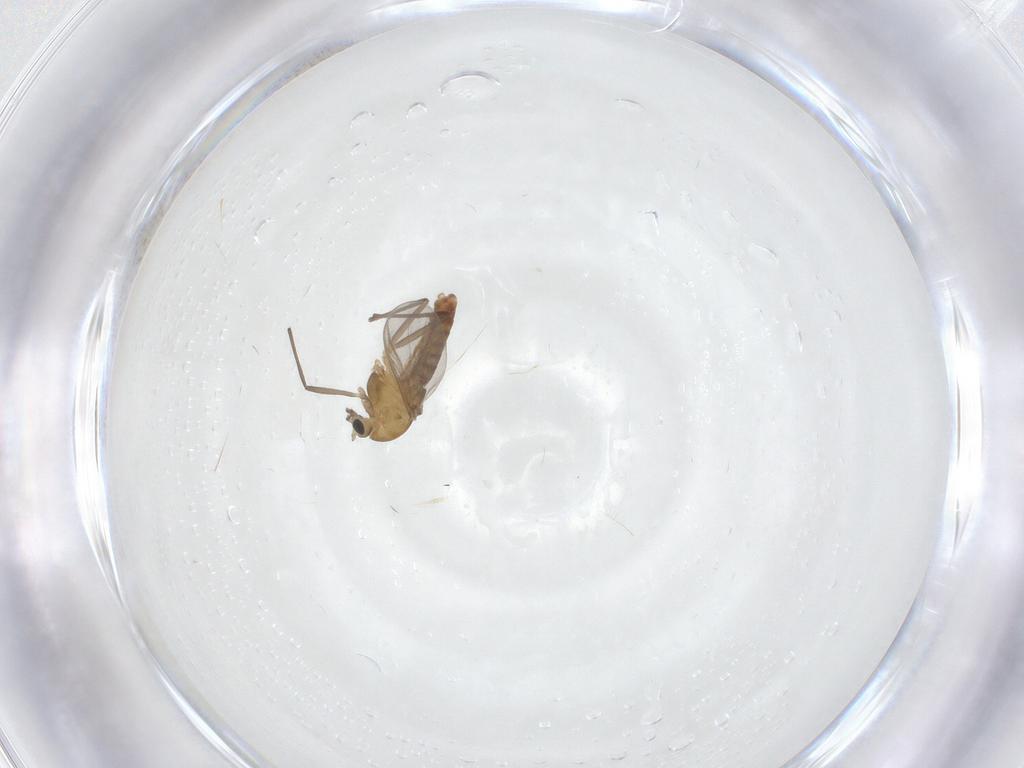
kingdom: Animalia
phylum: Arthropoda
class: Insecta
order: Diptera
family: Chironomidae
